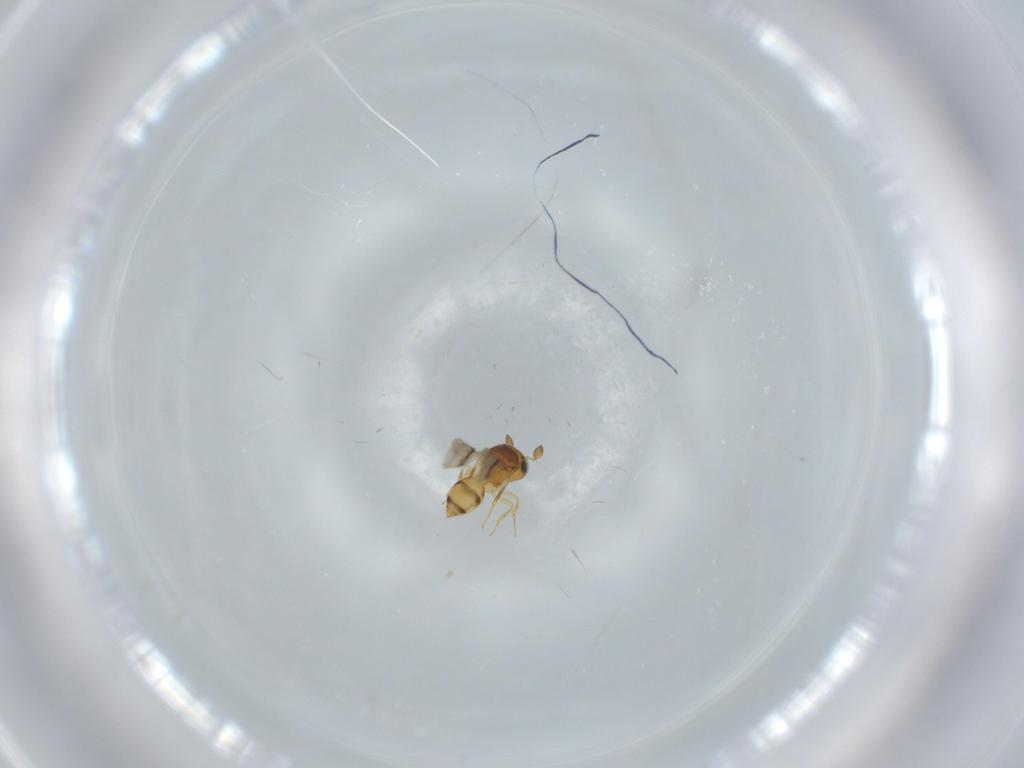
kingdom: Animalia
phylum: Arthropoda
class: Insecta
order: Hymenoptera
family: Scelionidae
